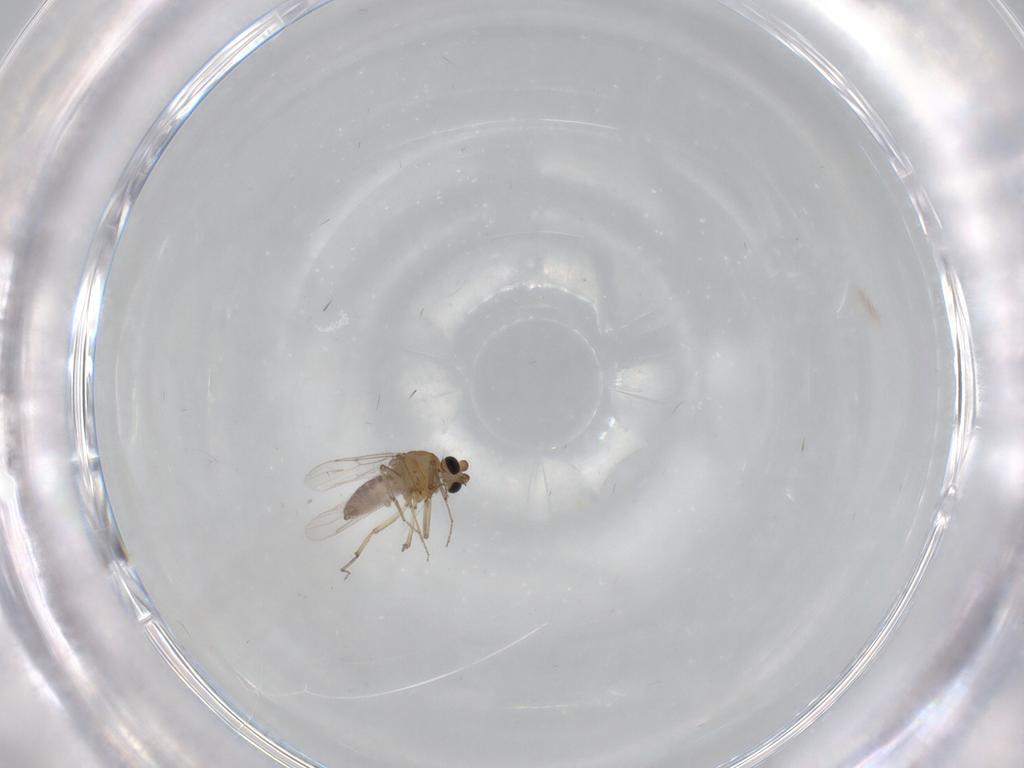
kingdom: Animalia
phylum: Arthropoda
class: Insecta
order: Diptera
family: Cecidomyiidae
